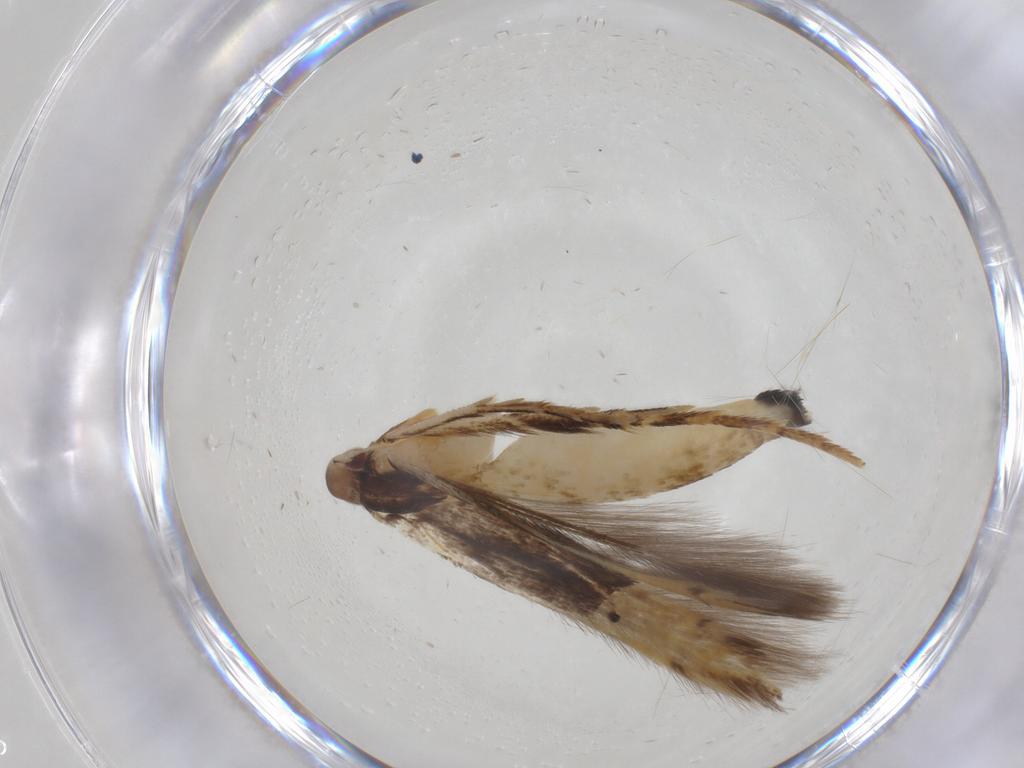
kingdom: Animalia
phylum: Arthropoda
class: Insecta
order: Lepidoptera
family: Cosmopterigidae
